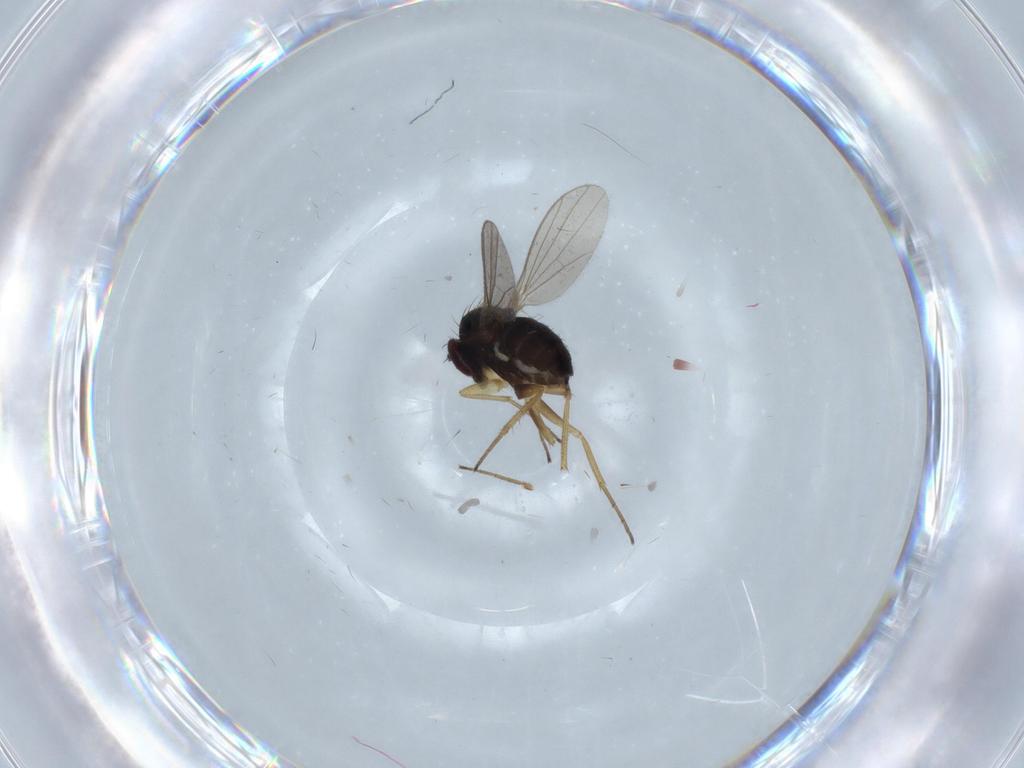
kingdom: Animalia
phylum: Arthropoda
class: Insecta
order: Diptera
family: Dolichopodidae
